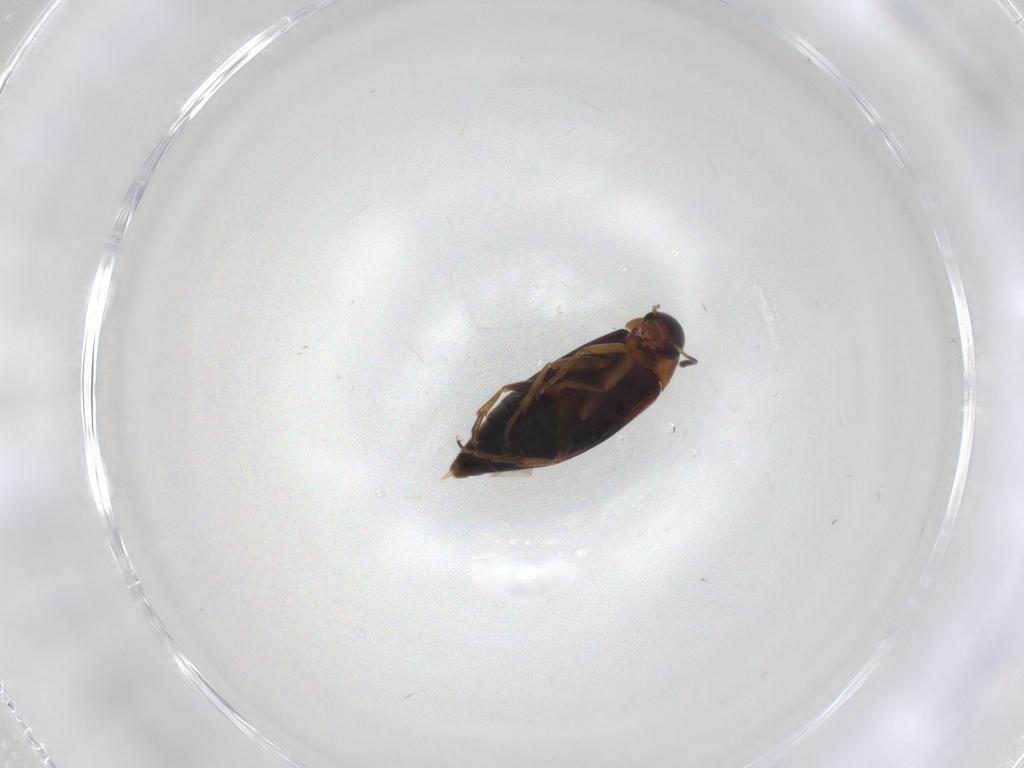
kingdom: Animalia
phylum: Arthropoda
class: Insecta
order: Coleoptera
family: Scraptiidae
